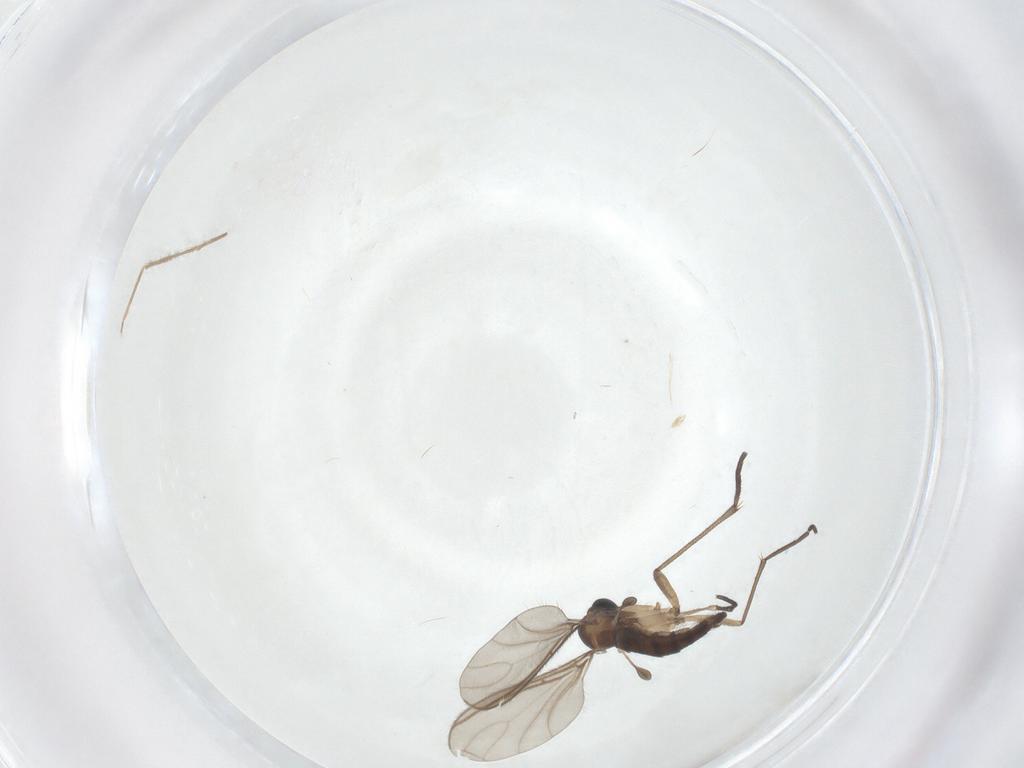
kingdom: Animalia
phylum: Arthropoda
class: Insecta
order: Diptera
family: Sciaridae
